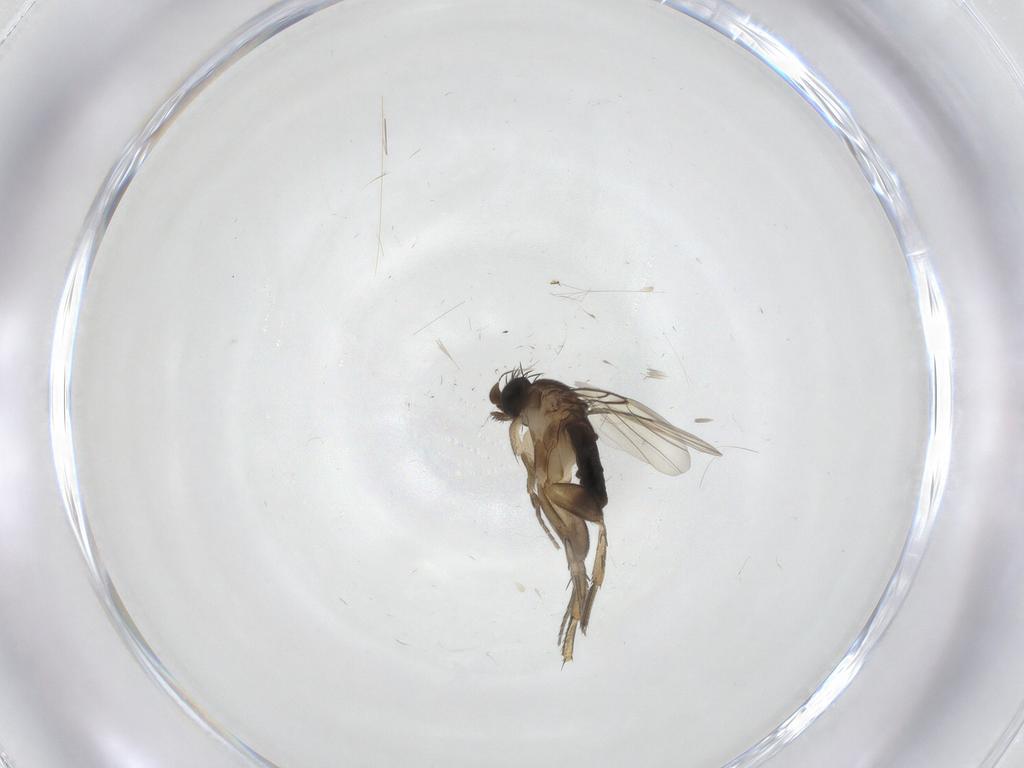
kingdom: Animalia
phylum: Arthropoda
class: Insecta
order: Diptera
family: Phoridae
